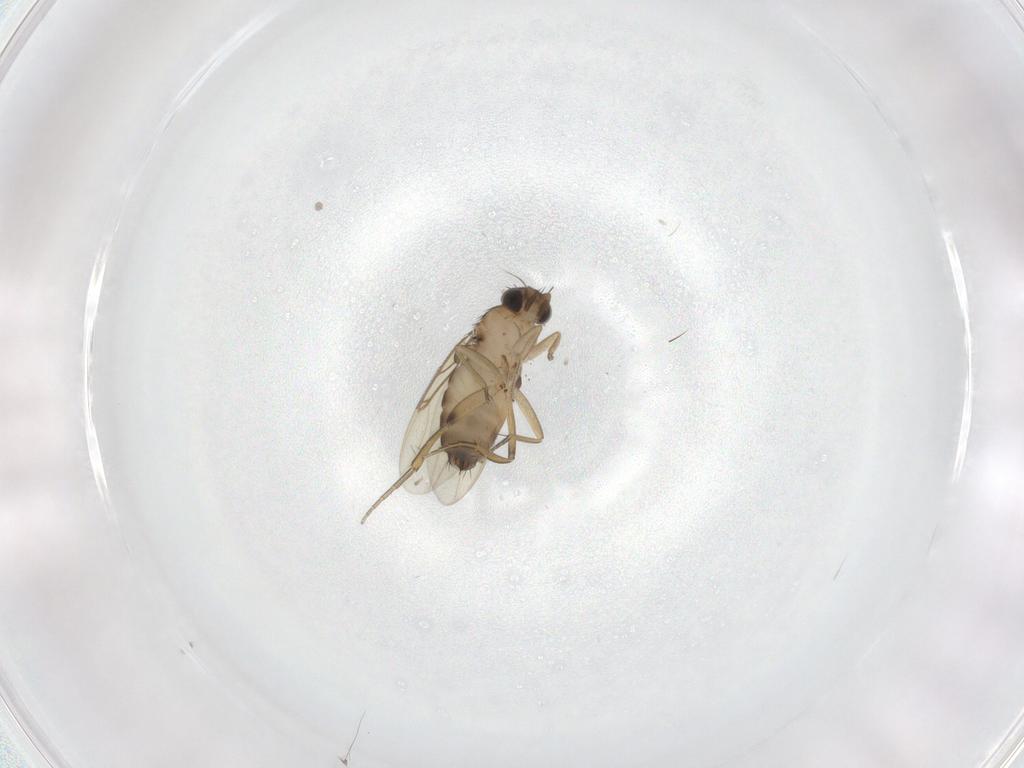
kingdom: Animalia
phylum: Arthropoda
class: Insecta
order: Diptera
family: Phoridae
